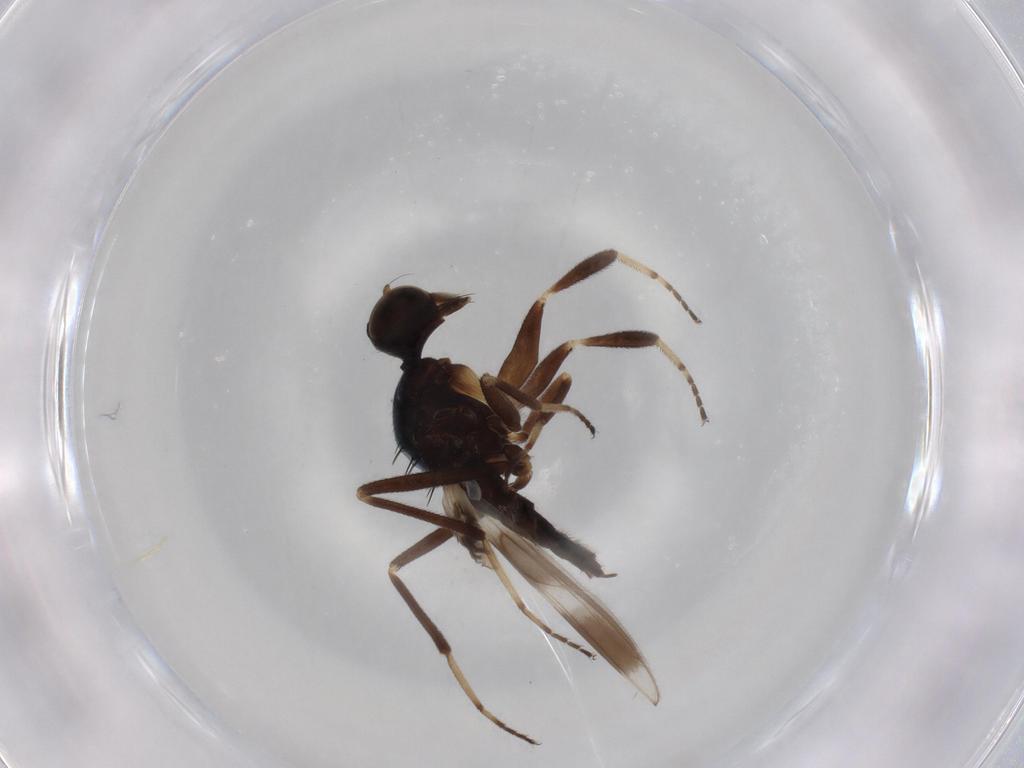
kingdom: Animalia
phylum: Arthropoda
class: Insecta
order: Diptera
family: Hybotidae
